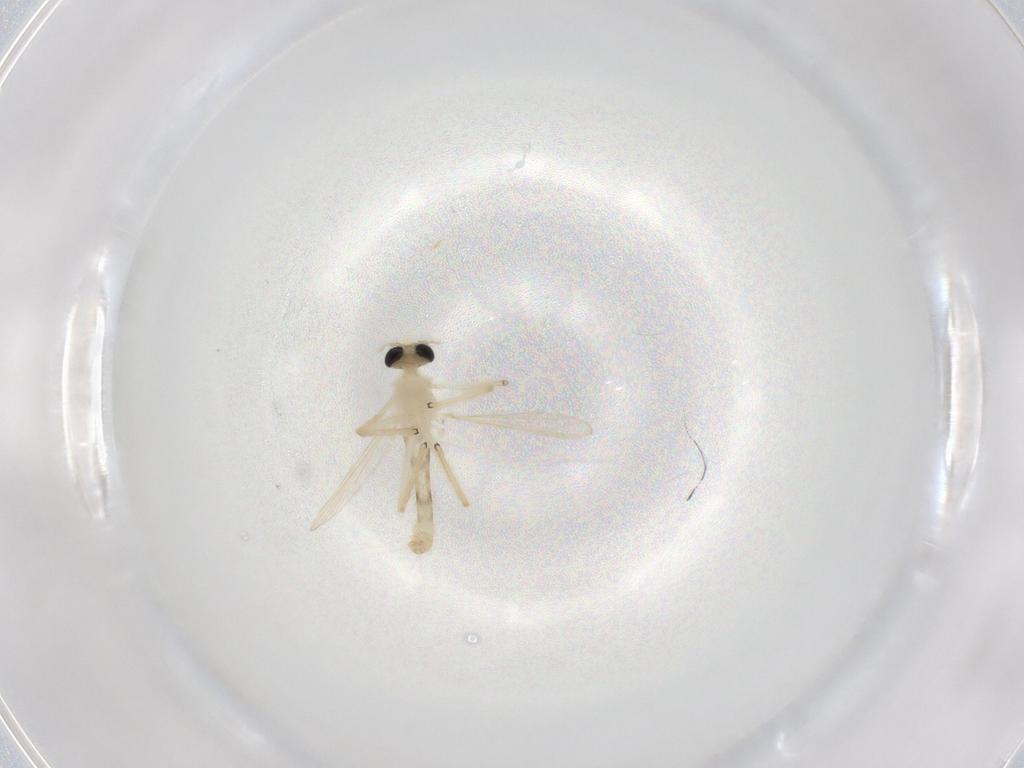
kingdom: Animalia
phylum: Arthropoda
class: Insecta
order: Diptera
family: Chironomidae
